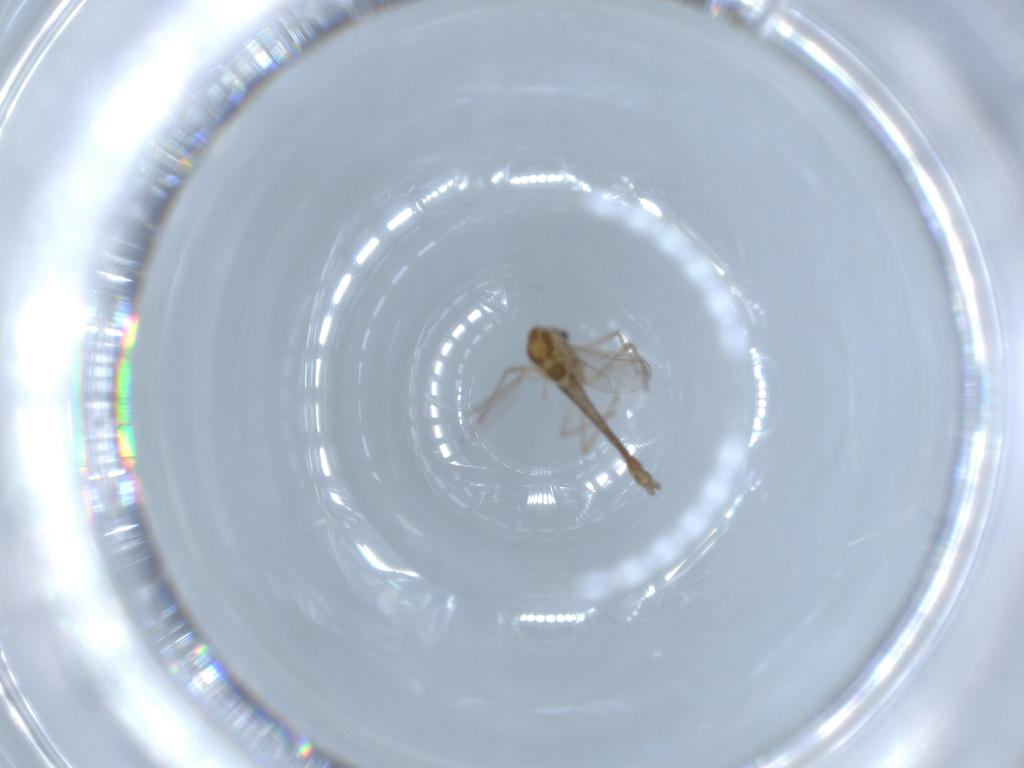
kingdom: Animalia
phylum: Arthropoda
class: Insecta
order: Diptera
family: Chironomidae
